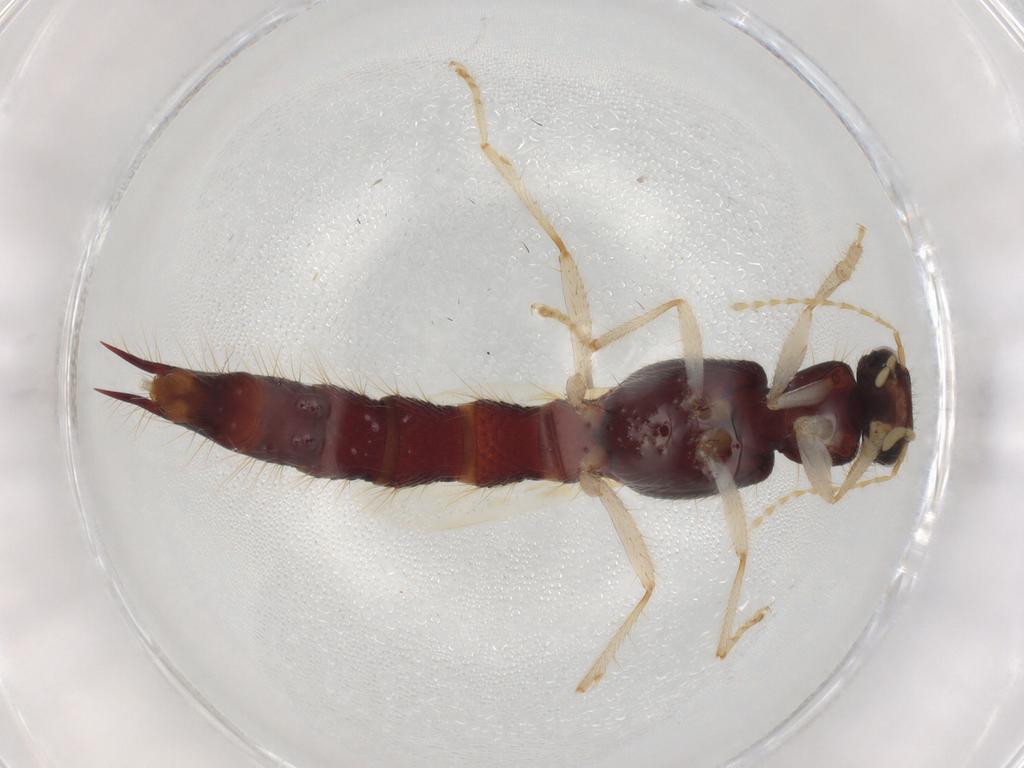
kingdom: Animalia
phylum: Arthropoda
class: Insecta
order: Coleoptera
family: Staphylinidae
